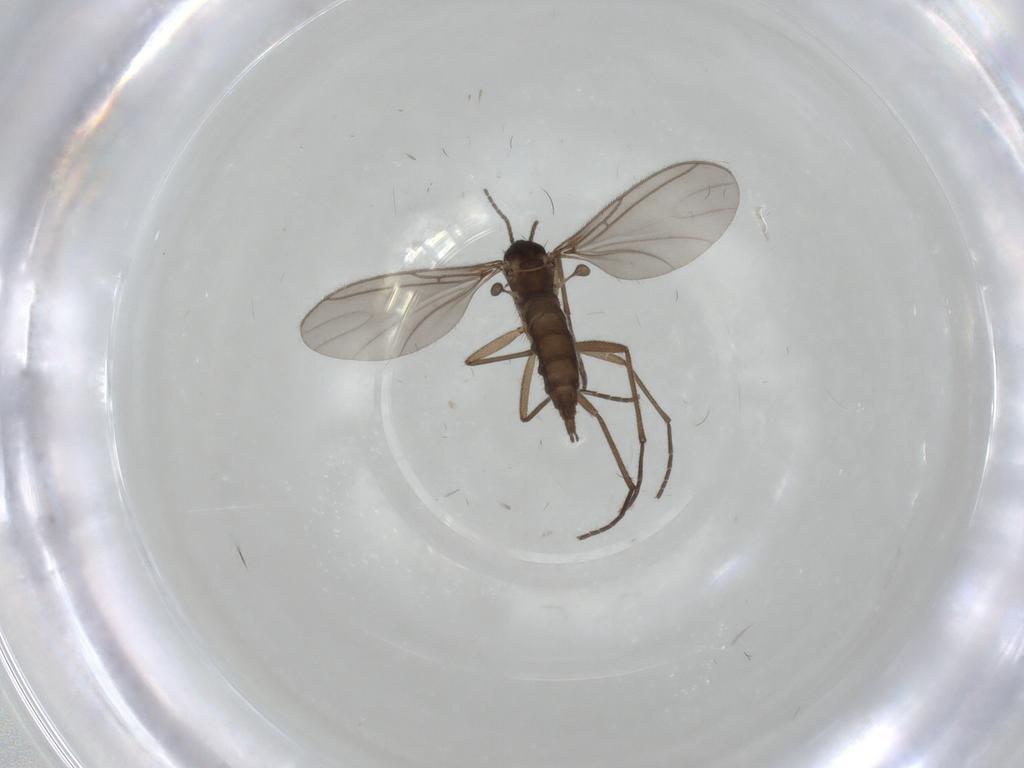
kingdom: Animalia
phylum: Arthropoda
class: Insecta
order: Diptera
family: Sciaridae
